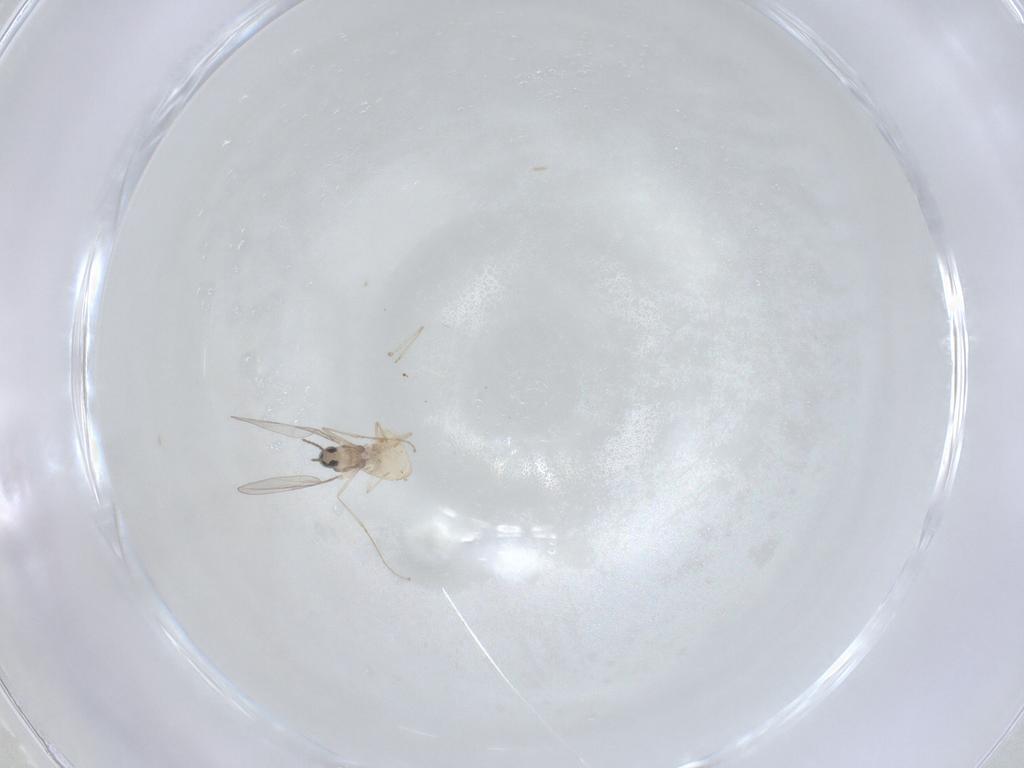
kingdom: Animalia
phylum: Arthropoda
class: Insecta
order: Diptera
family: Cecidomyiidae
